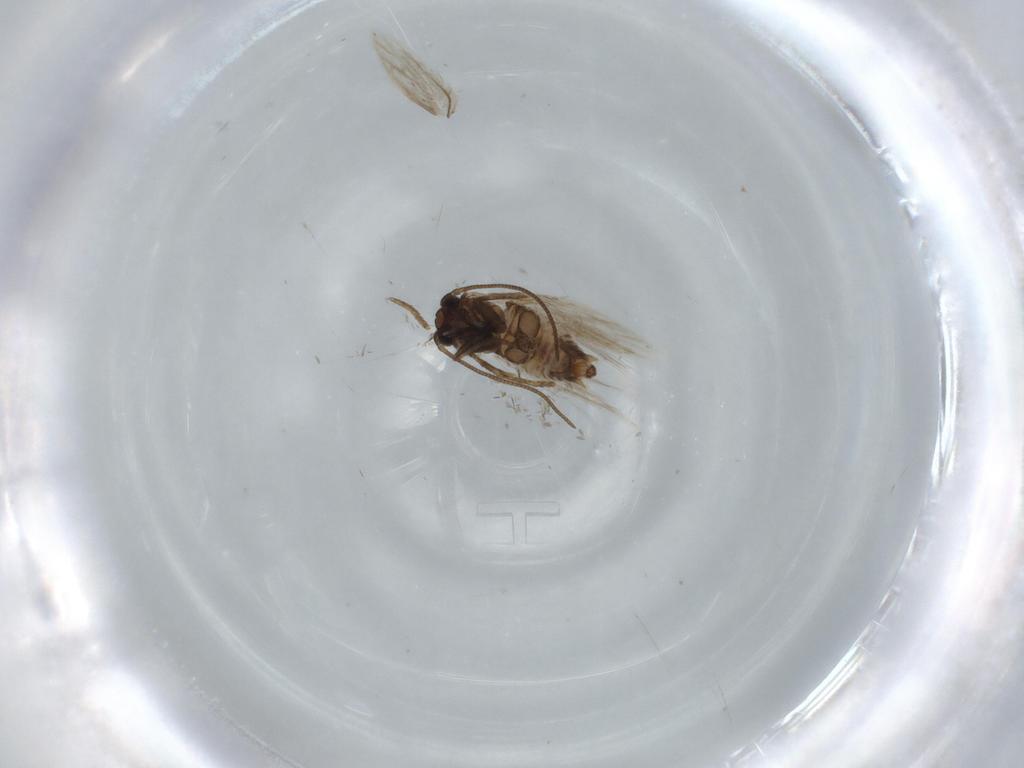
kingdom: Animalia
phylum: Arthropoda
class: Insecta
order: Lepidoptera
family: Nepticulidae
